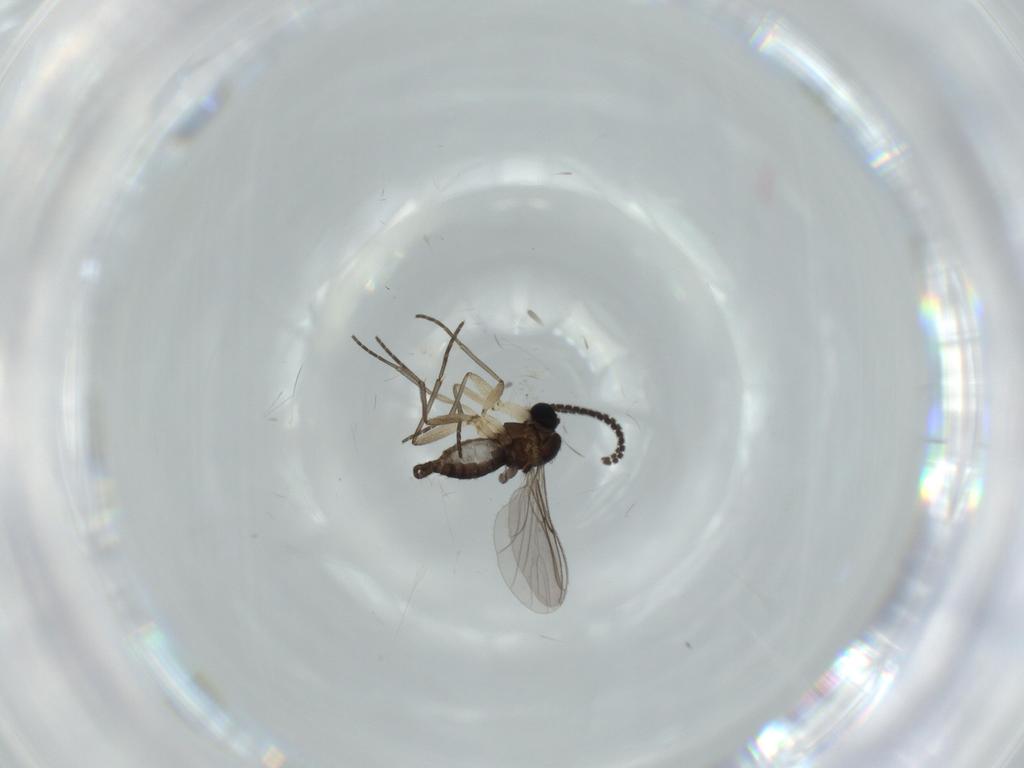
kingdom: Animalia
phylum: Arthropoda
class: Insecta
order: Diptera
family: Sciaridae
